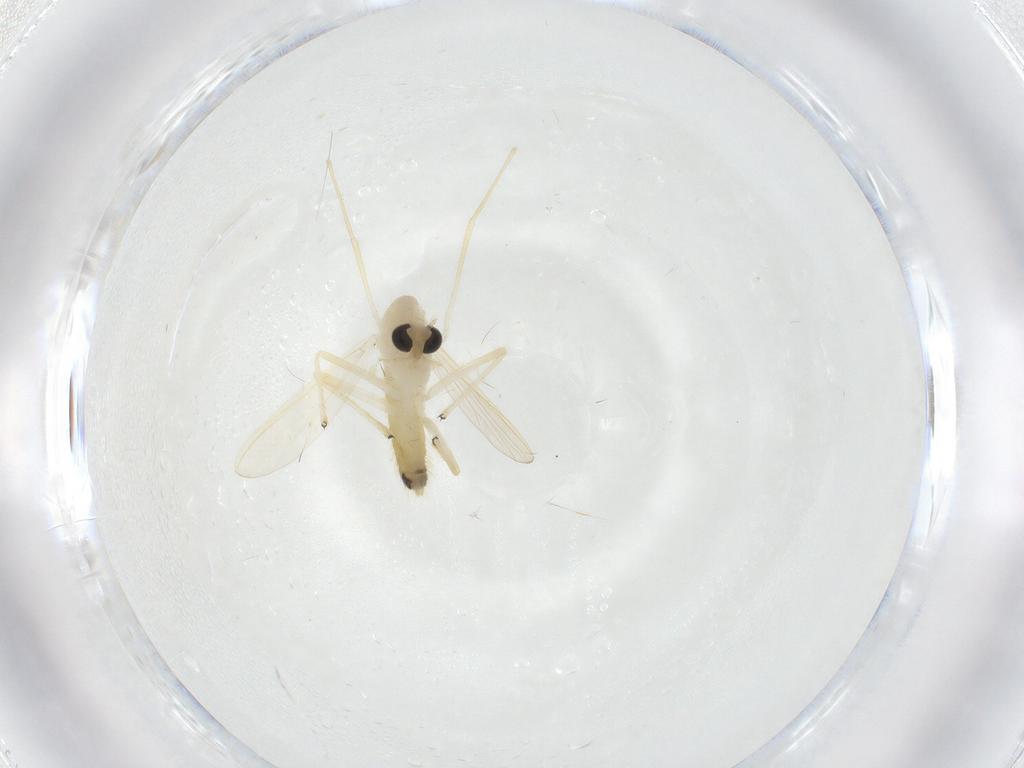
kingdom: Animalia
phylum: Arthropoda
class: Insecta
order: Diptera
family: Chironomidae
